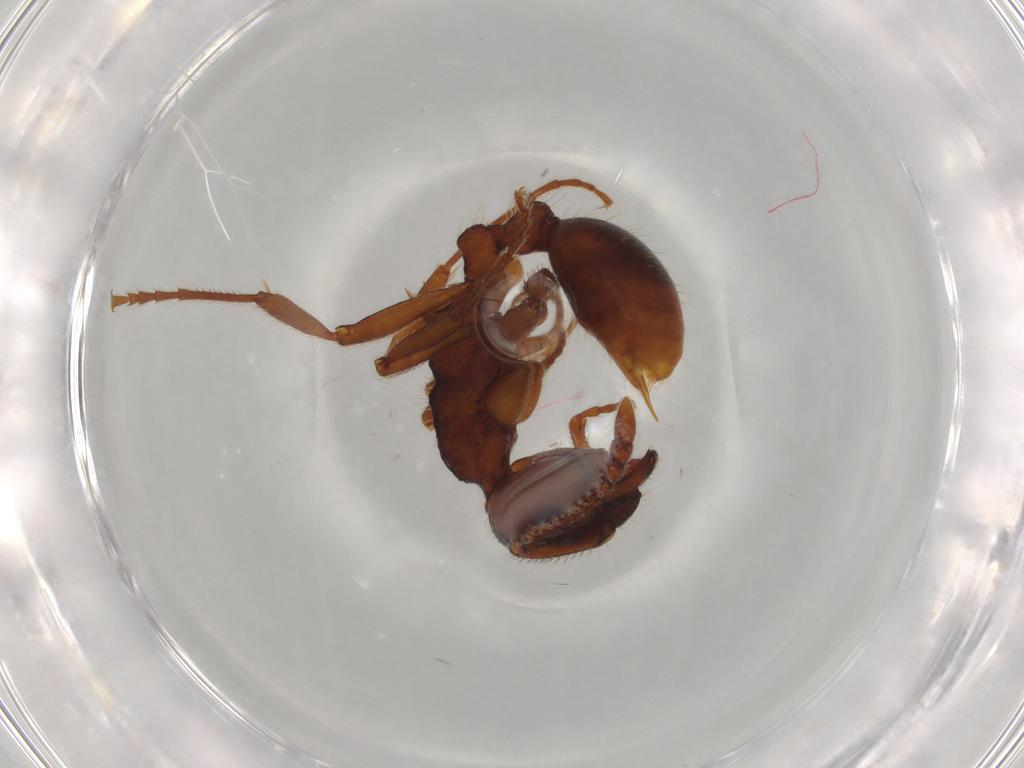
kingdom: Animalia
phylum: Arthropoda
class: Insecta
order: Hymenoptera
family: Formicidae
